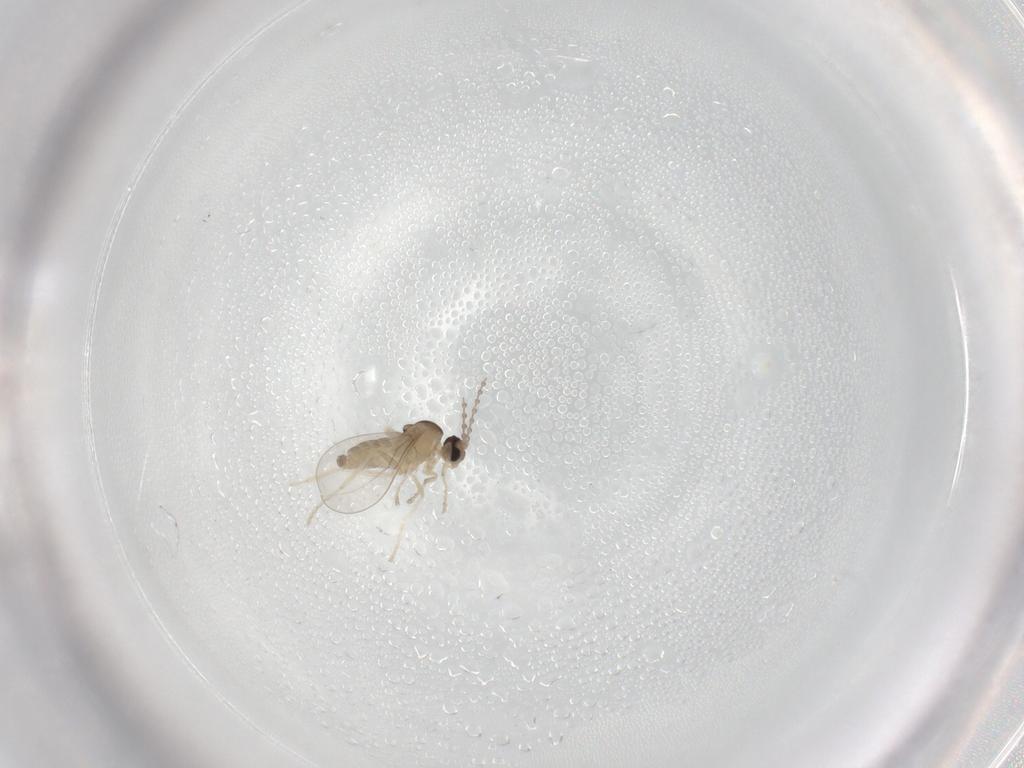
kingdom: Animalia
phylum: Arthropoda
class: Insecta
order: Diptera
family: Cecidomyiidae
